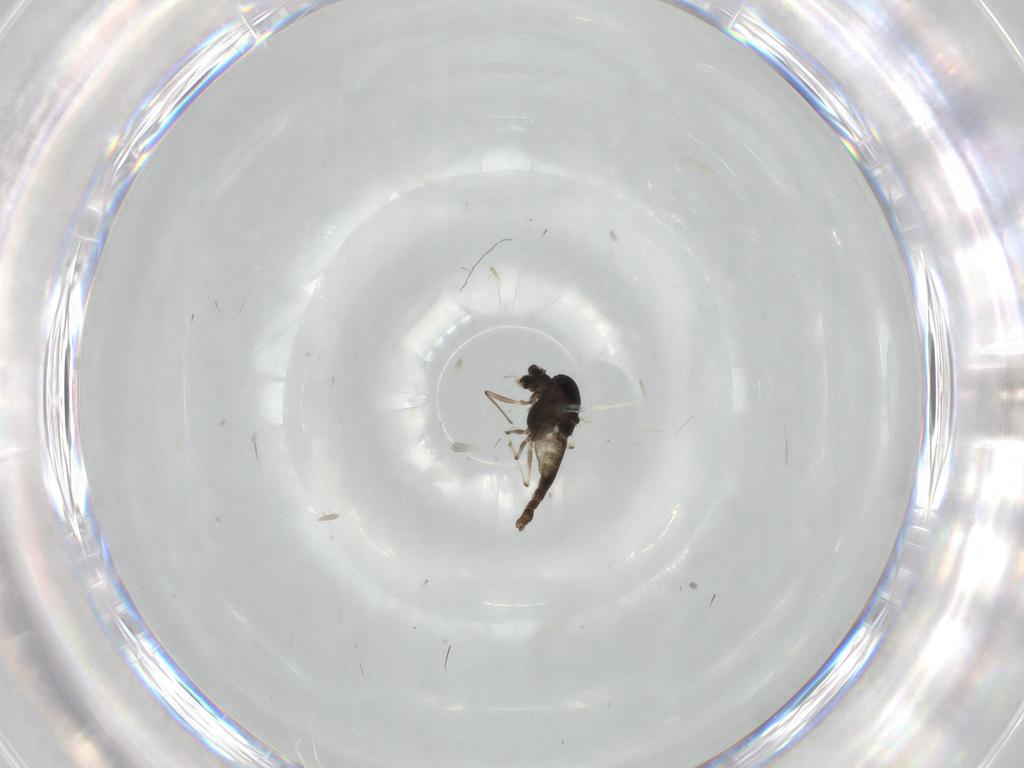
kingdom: Animalia
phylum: Arthropoda
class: Insecta
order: Diptera
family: Chironomidae
